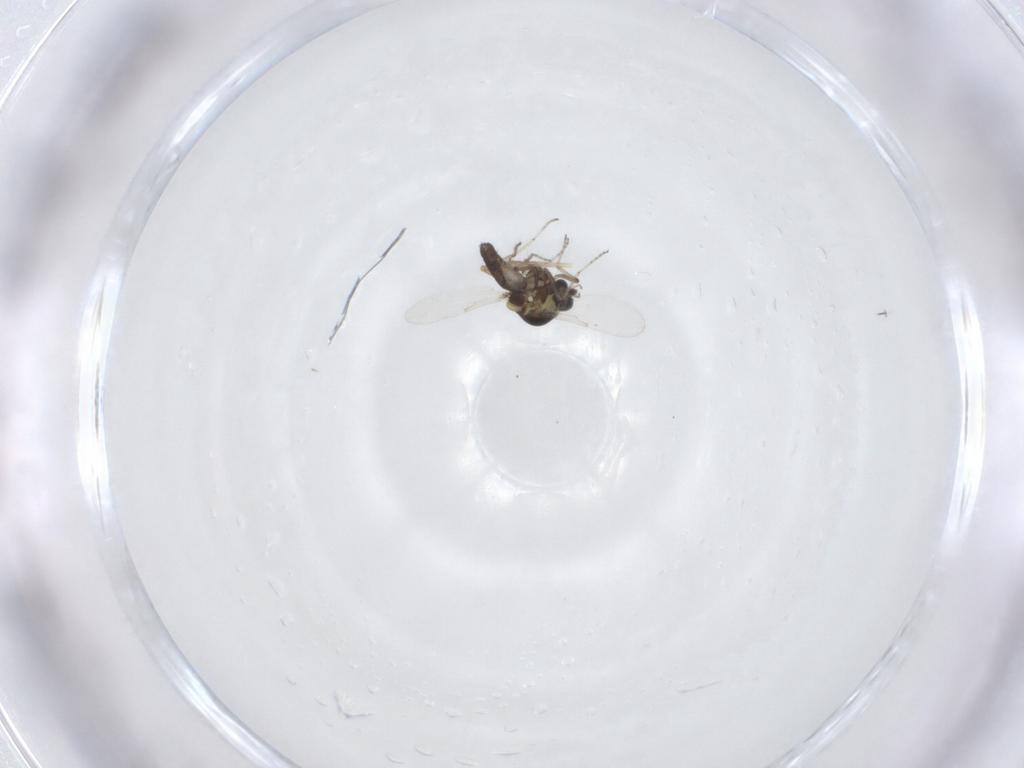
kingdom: Animalia
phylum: Arthropoda
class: Insecta
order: Diptera
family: Ceratopogonidae
